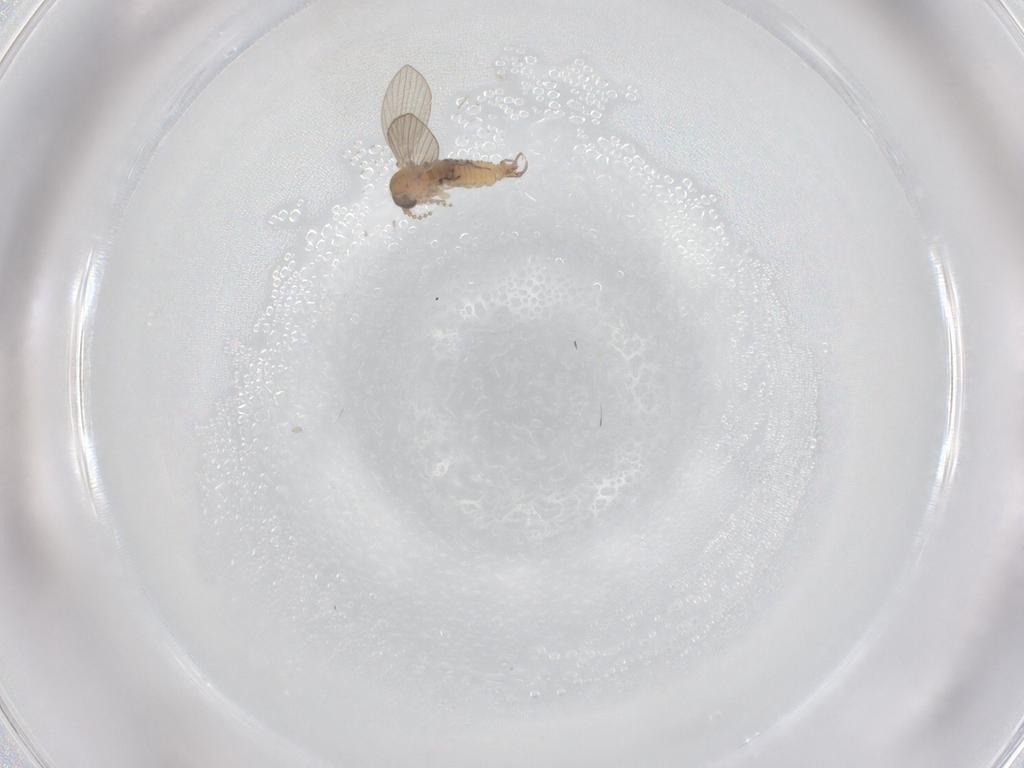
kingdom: Animalia
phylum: Arthropoda
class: Insecta
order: Diptera
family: Psychodidae
